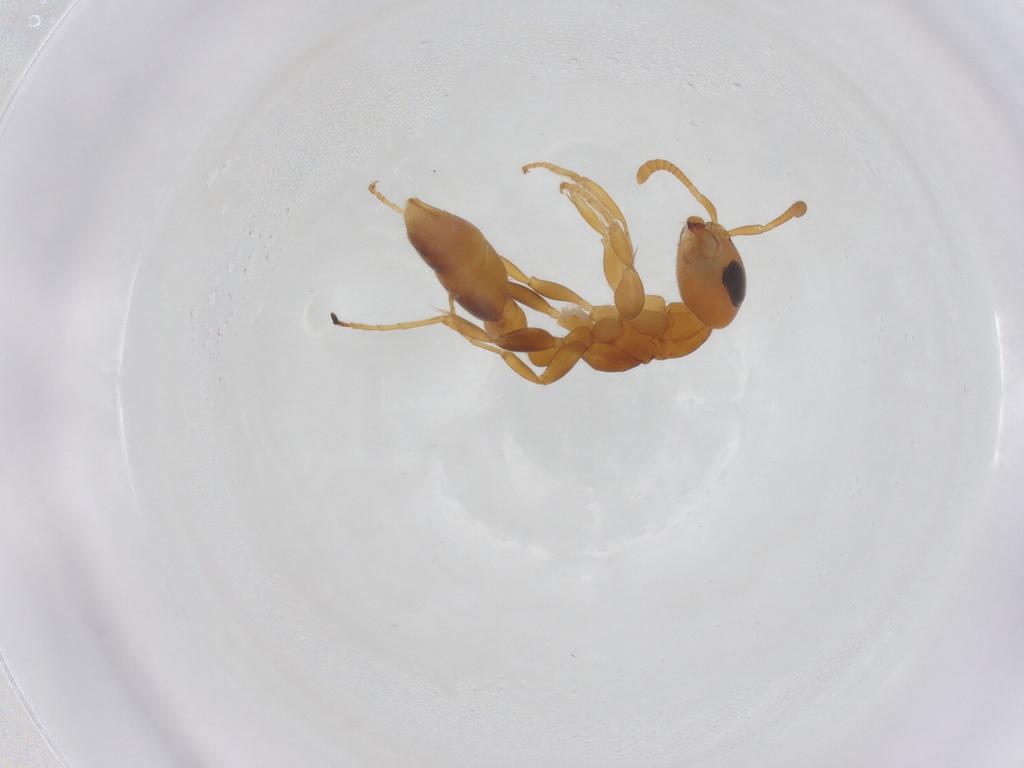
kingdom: Animalia
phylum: Arthropoda
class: Insecta
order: Hymenoptera
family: Formicidae
